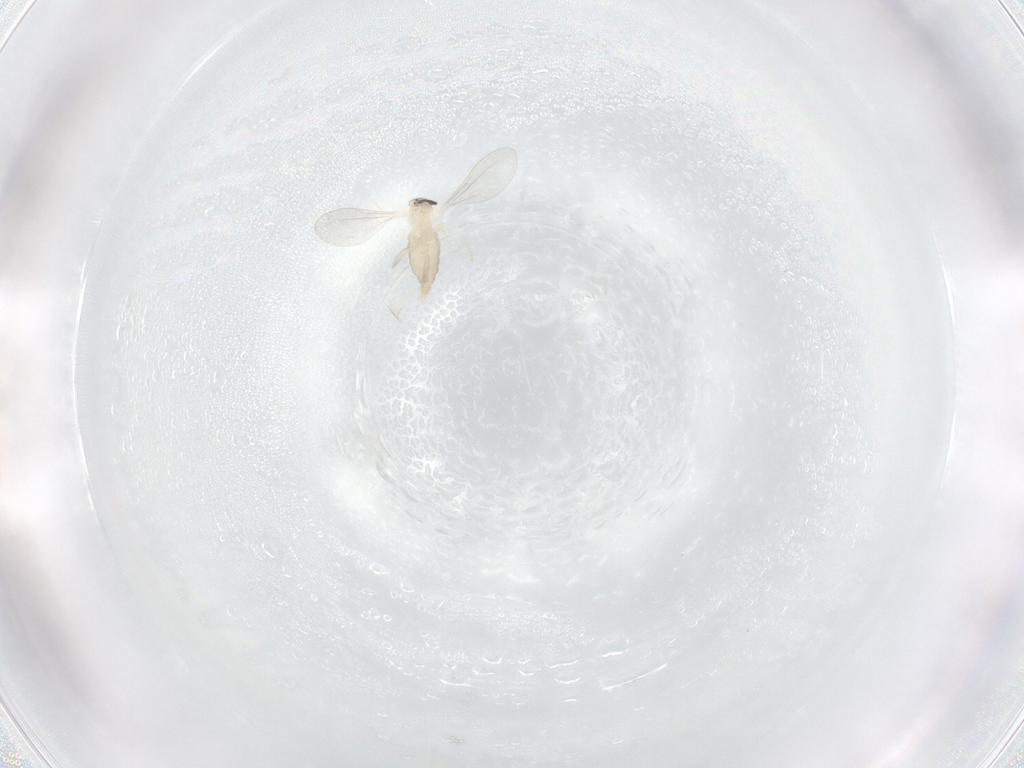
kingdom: Animalia
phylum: Arthropoda
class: Insecta
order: Diptera
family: Cecidomyiidae
